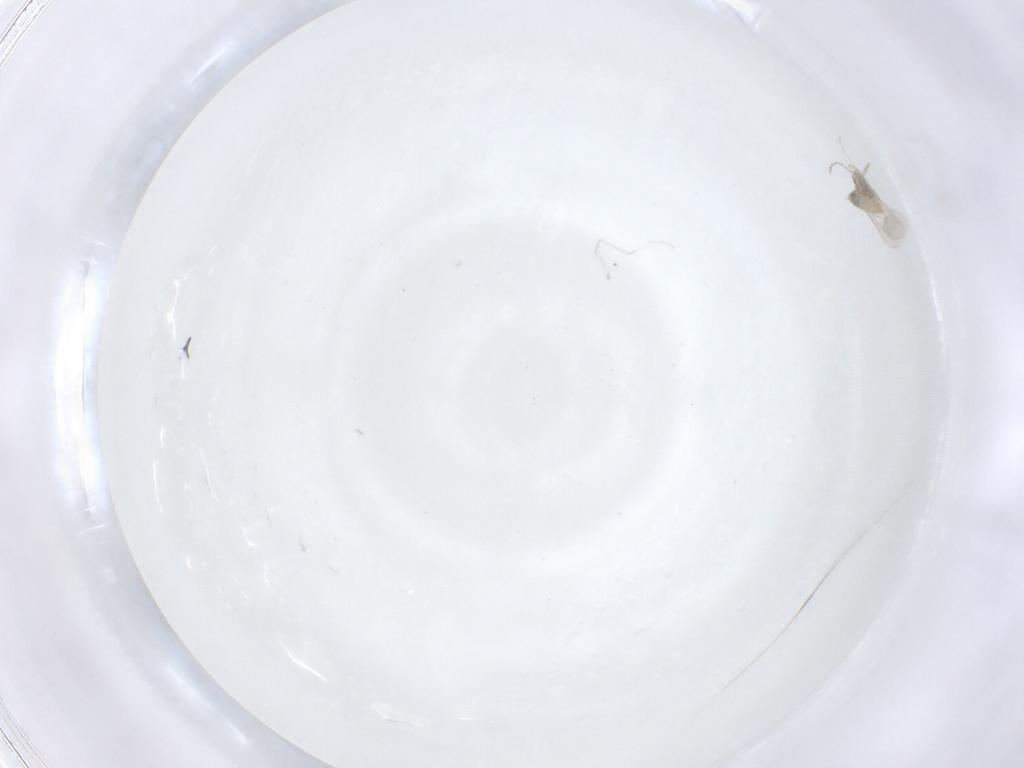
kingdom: Animalia
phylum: Arthropoda
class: Insecta
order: Diptera
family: Cecidomyiidae
